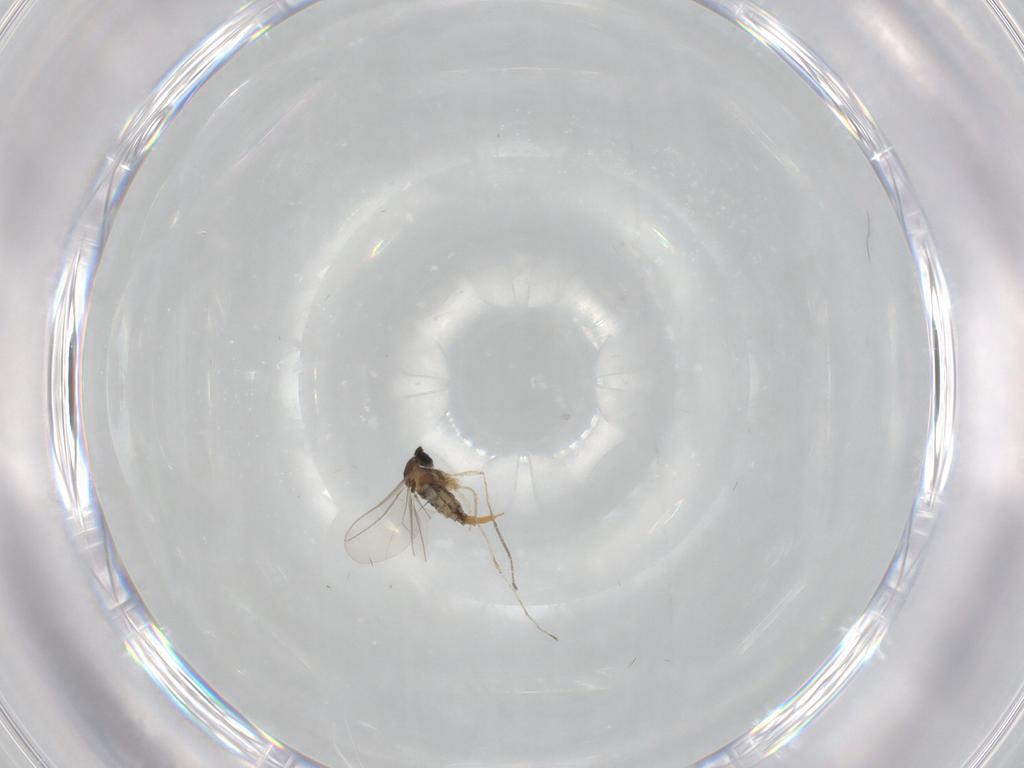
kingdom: Animalia
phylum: Arthropoda
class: Insecta
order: Diptera
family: Cecidomyiidae
